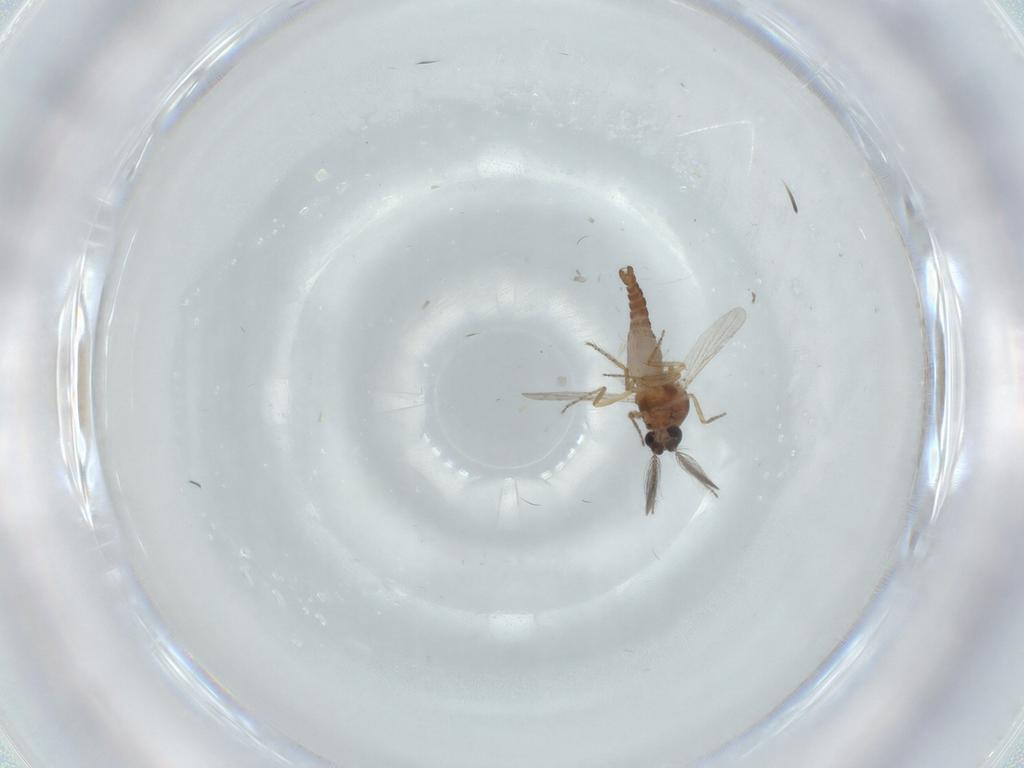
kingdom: Animalia
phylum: Arthropoda
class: Insecta
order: Diptera
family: Ceratopogonidae
